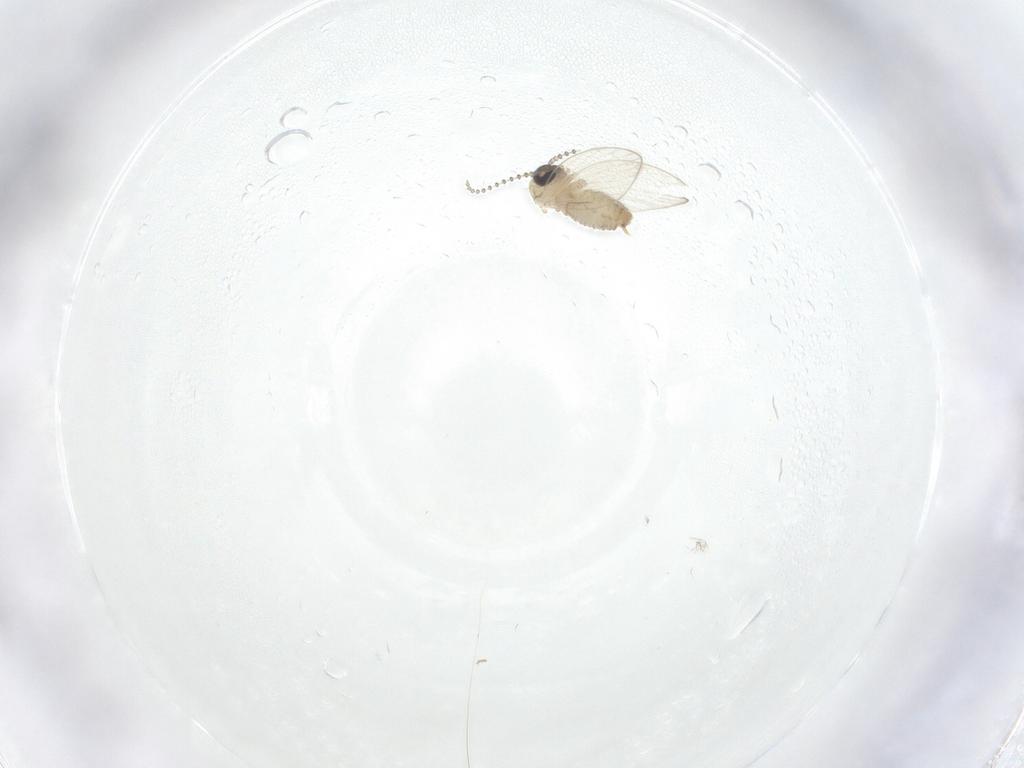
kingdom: Animalia
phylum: Arthropoda
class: Insecta
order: Diptera
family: Psychodidae
